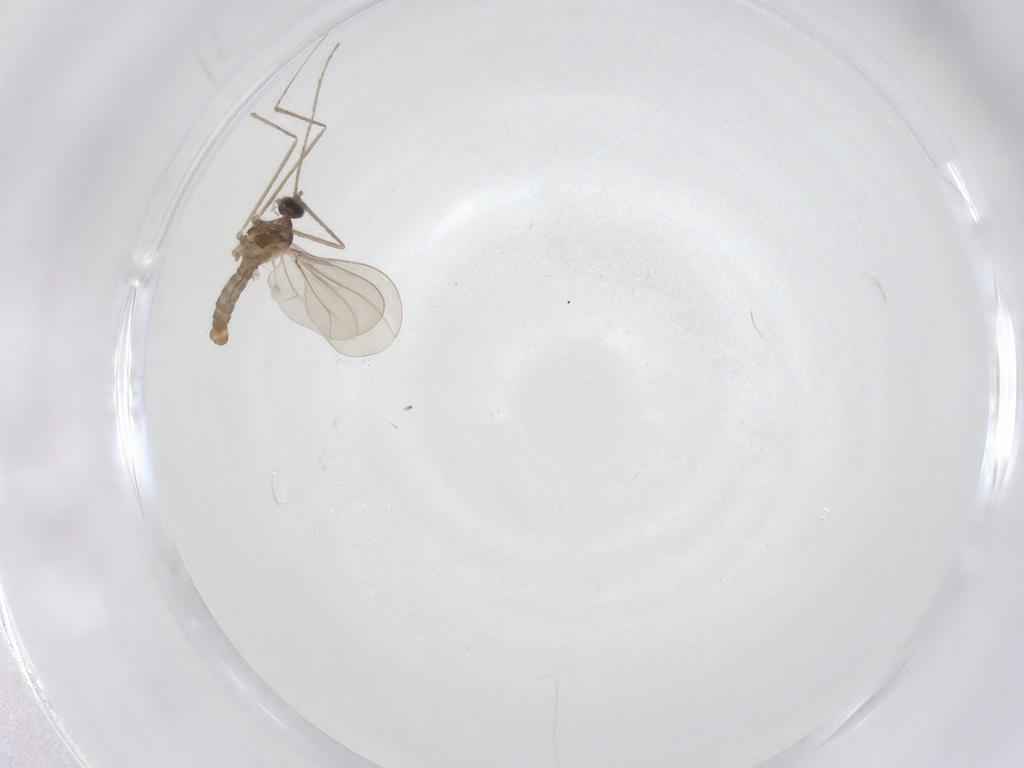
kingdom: Animalia
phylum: Arthropoda
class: Insecta
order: Diptera
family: Cecidomyiidae
